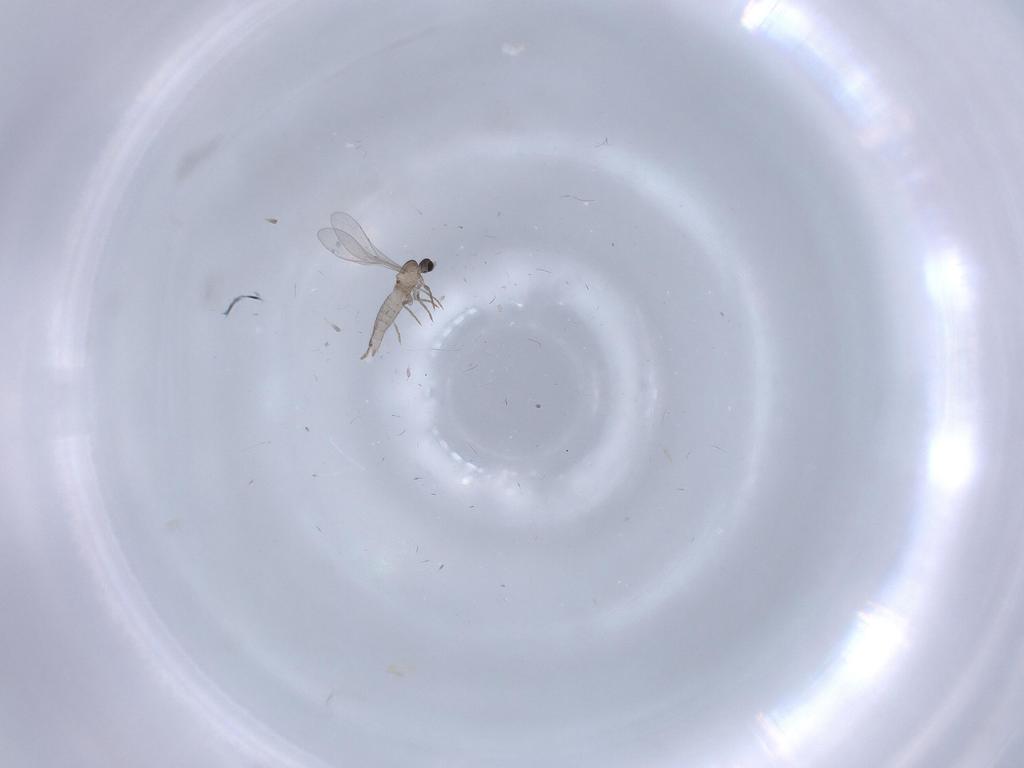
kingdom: Animalia
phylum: Arthropoda
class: Insecta
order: Diptera
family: Cecidomyiidae
